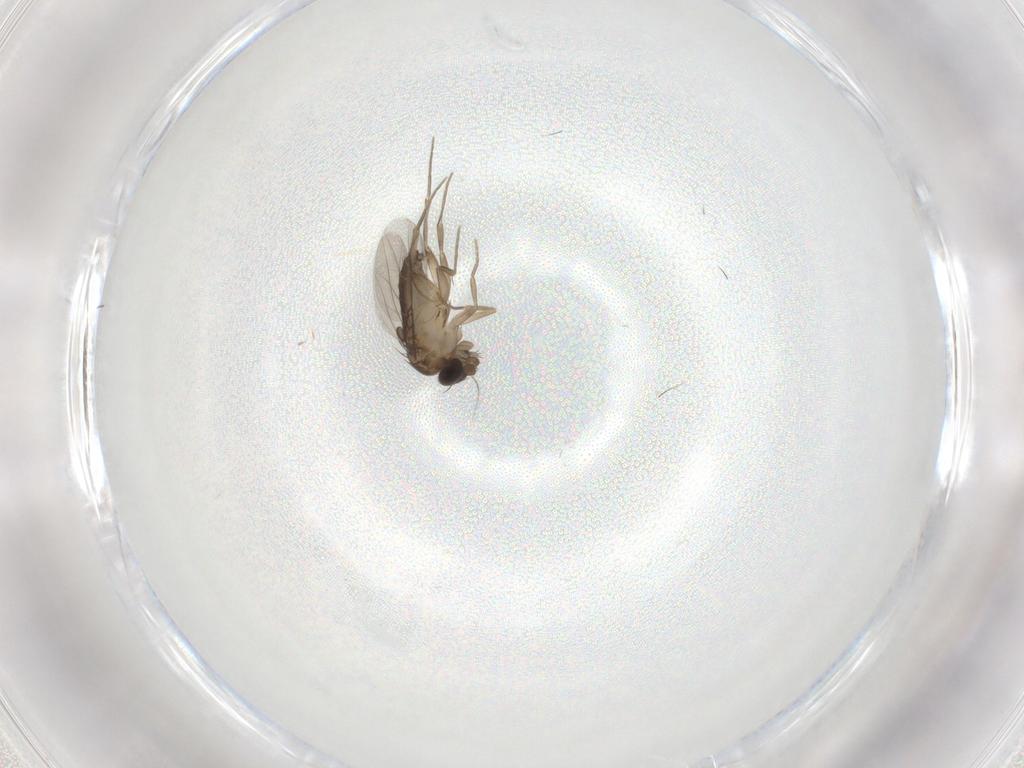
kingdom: Animalia
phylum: Arthropoda
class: Insecta
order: Diptera
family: Phoridae
